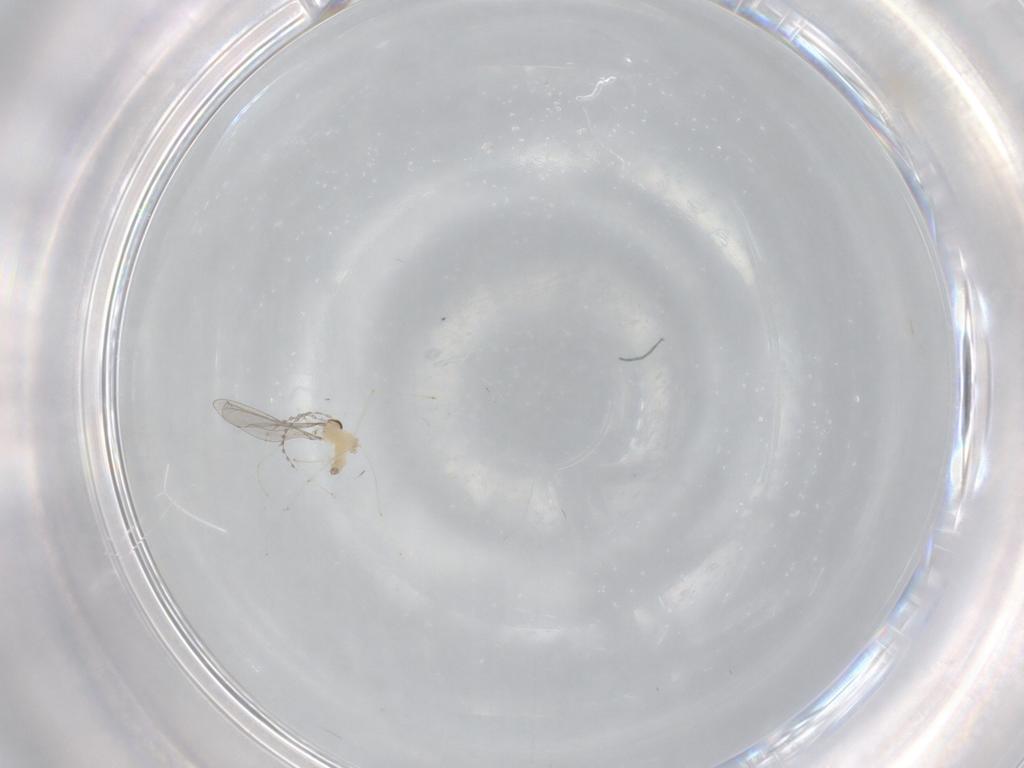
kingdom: Animalia
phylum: Arthropoda
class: Insecta
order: Diptera
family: Cecidomyiidae
